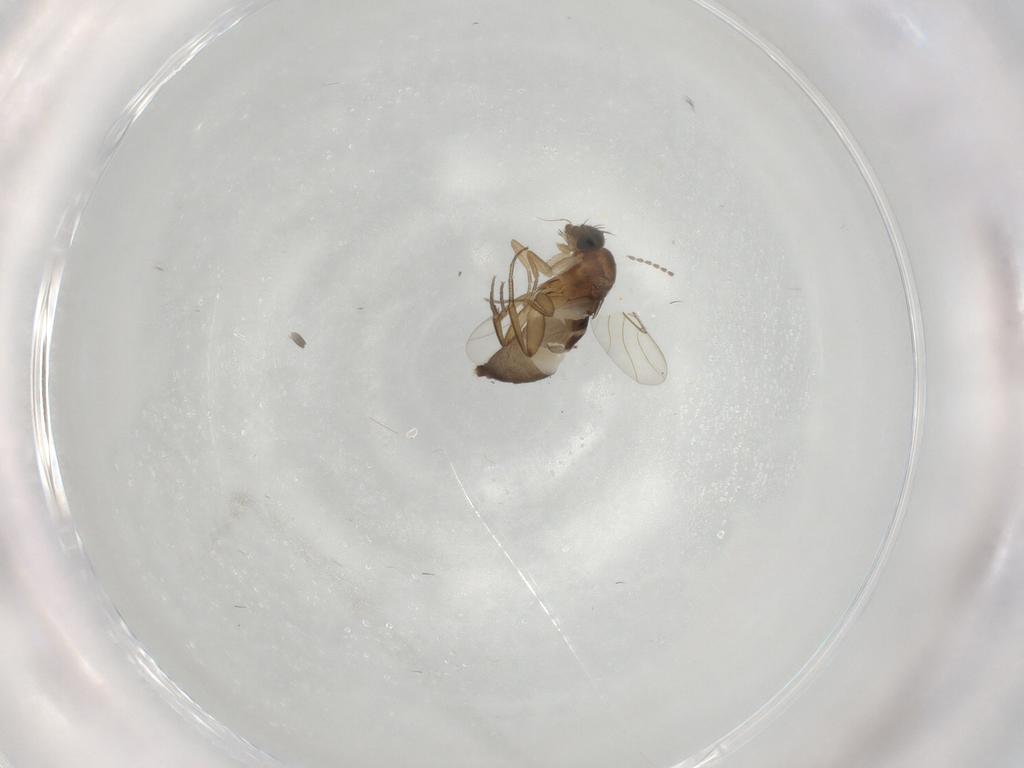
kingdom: Animalia
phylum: Arthropoda
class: Insecta
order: Diptera
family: Phoridae
